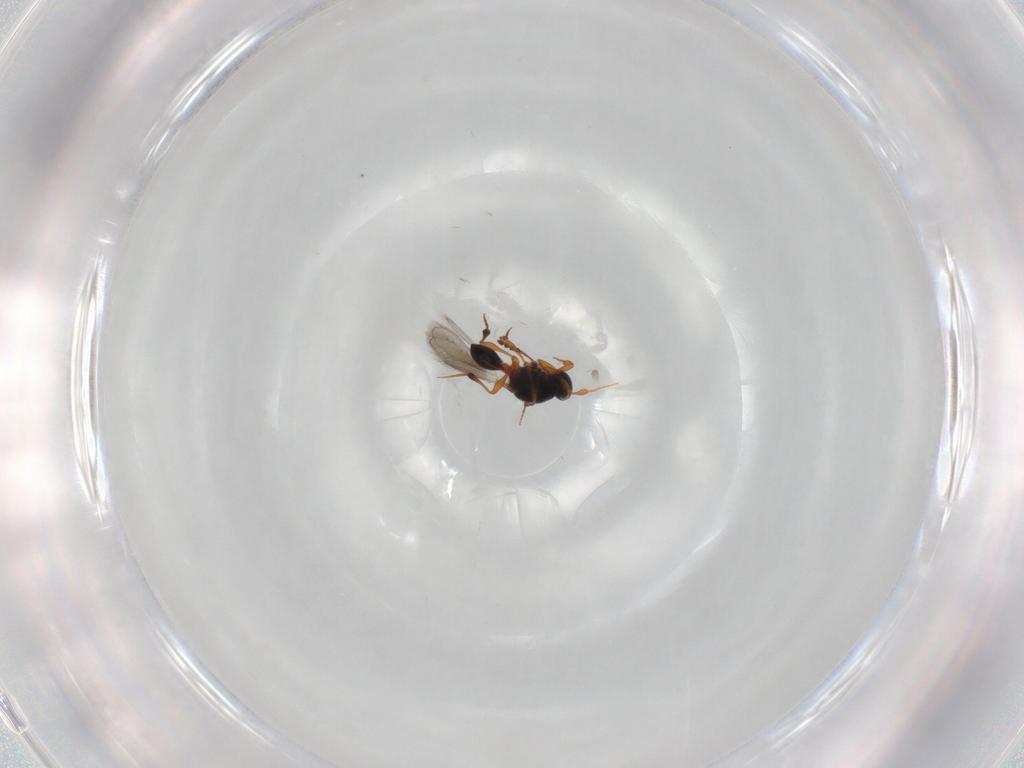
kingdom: Animalia
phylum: Arthropoda
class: Insecta
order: Hymenoptera
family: Platygastridae
